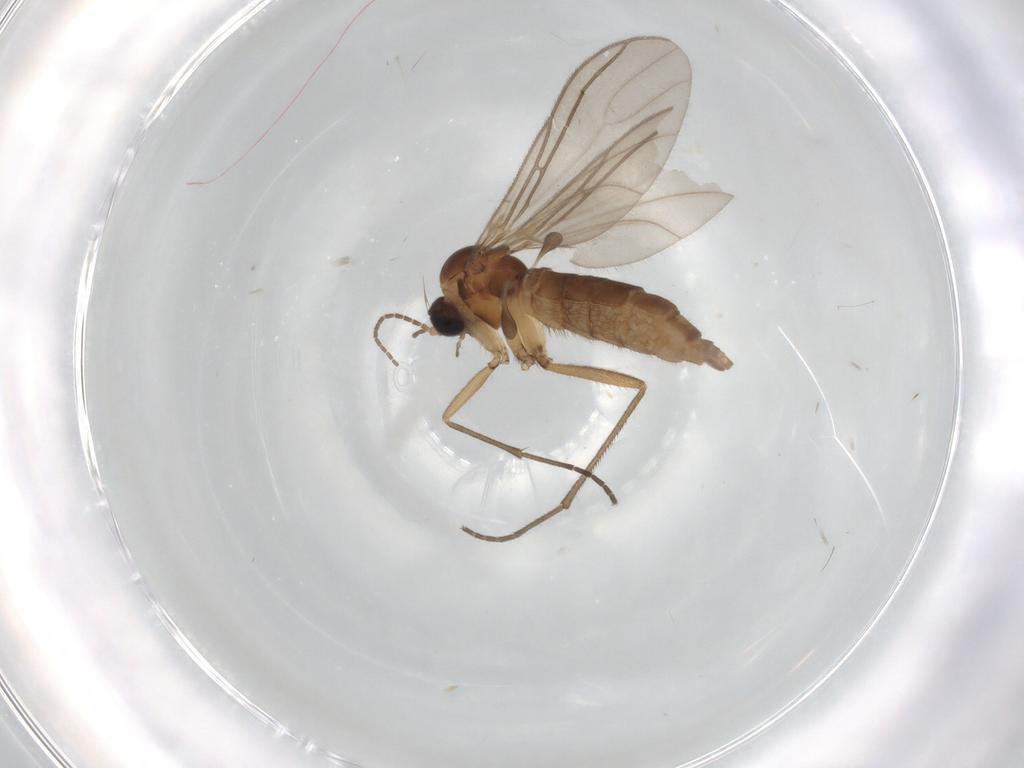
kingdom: Animalia
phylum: Arthropoda
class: Insecta
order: Diptera
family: Sciaridae
